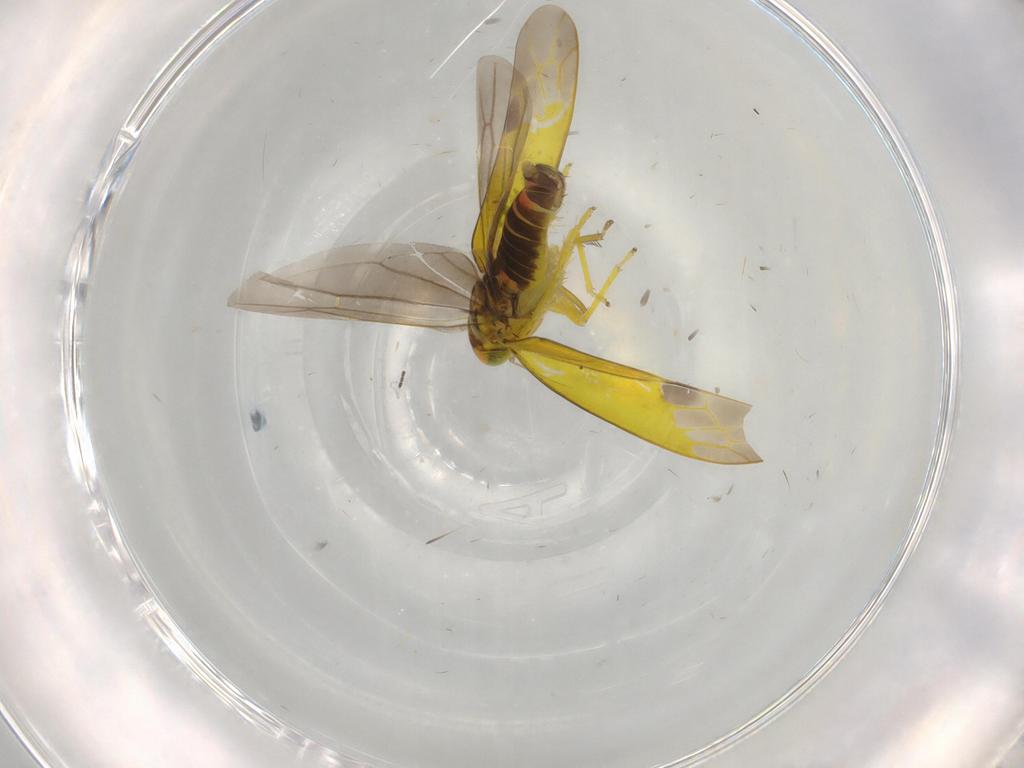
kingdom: Animalia
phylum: Arthropoda
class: Insecta
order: Hemiptera
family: Cicadellidae
